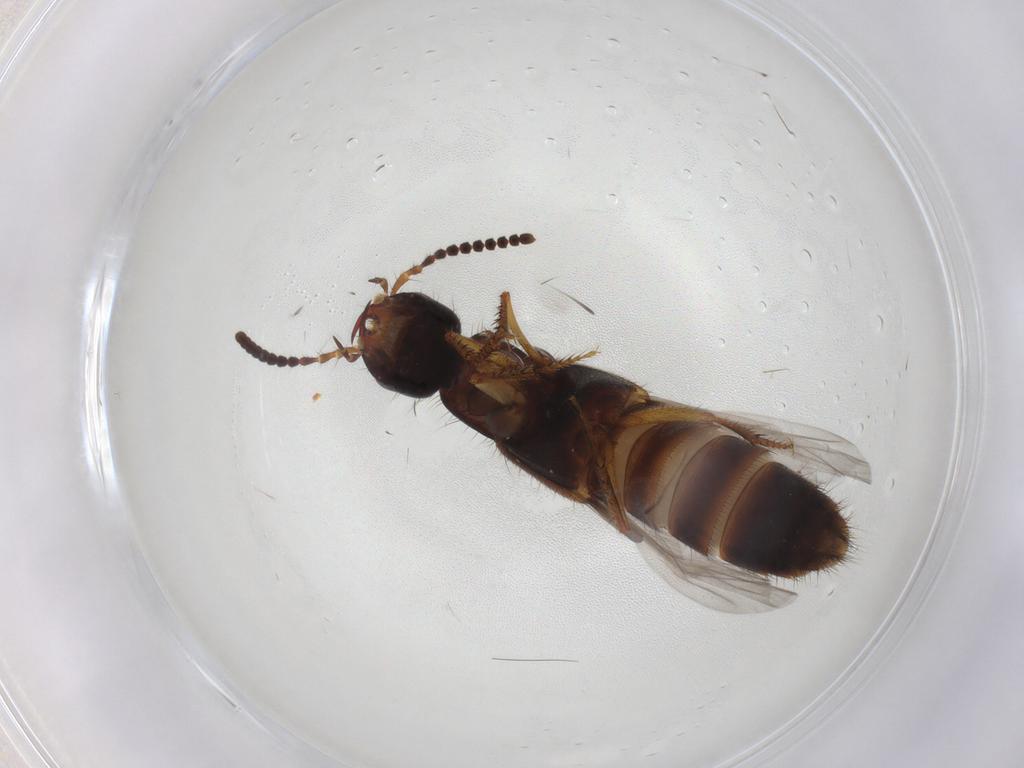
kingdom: Animalia
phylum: Arthropoda
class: Insecta
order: Coleoptera
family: Staphylinidae
